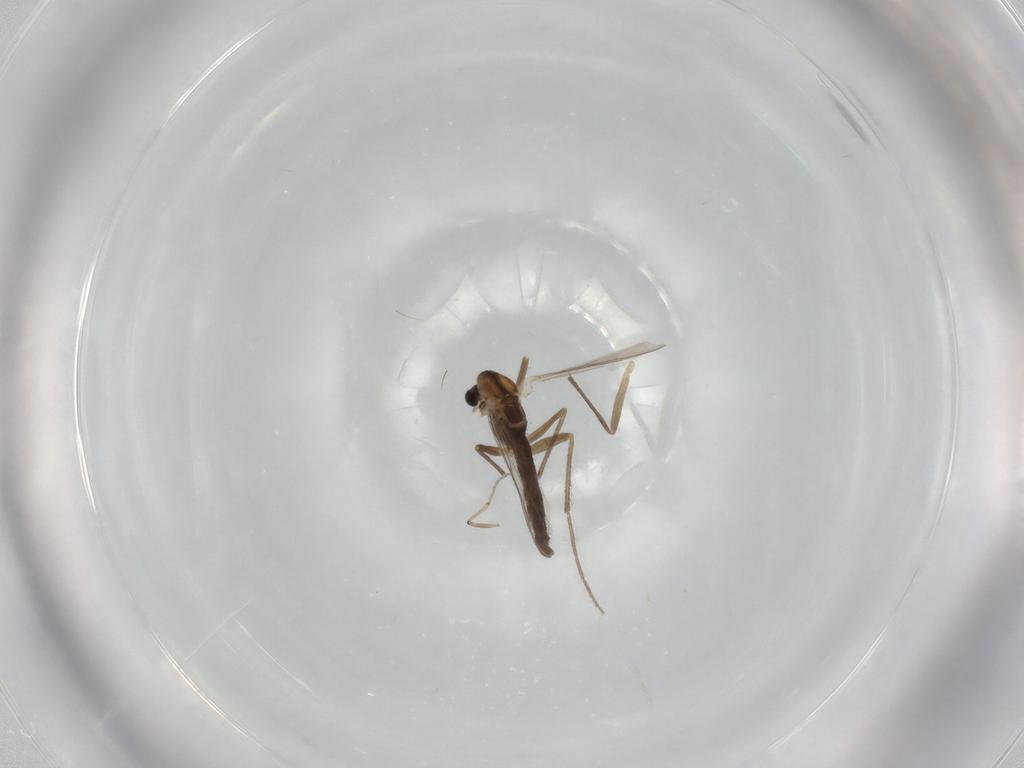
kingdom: Animalia
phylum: Arthropoda
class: Insecta
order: Diptera
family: Chironomidae
